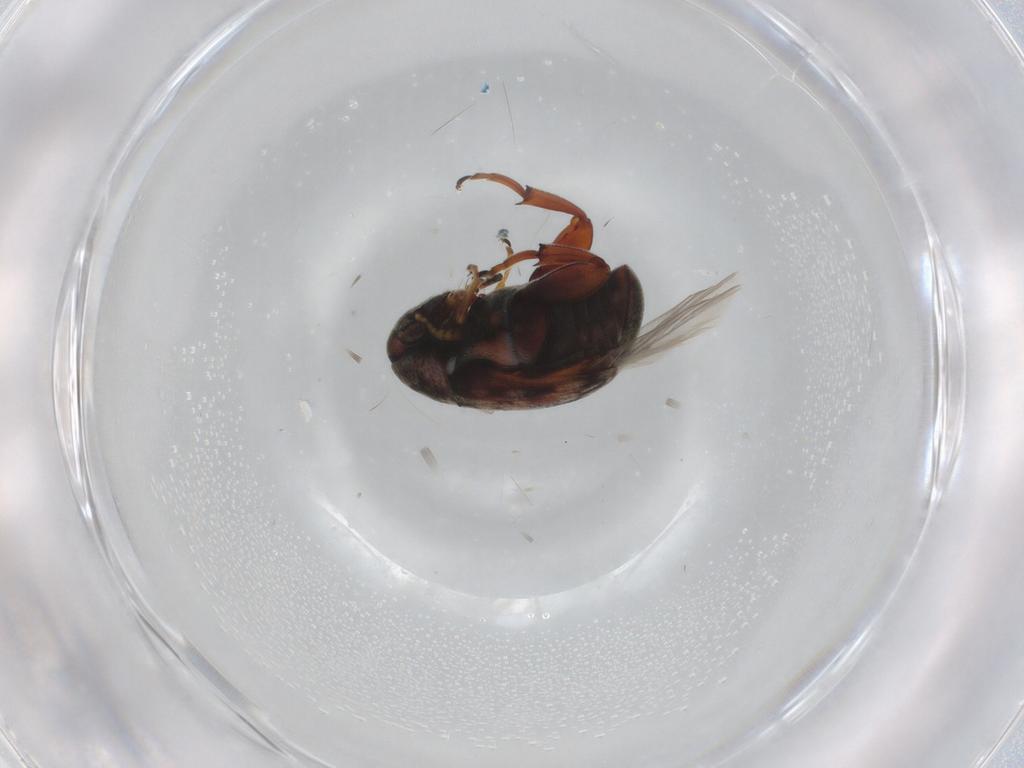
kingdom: Animalia
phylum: Arthropoda
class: Insecta
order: Coleoptera
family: Chrysomelidae
